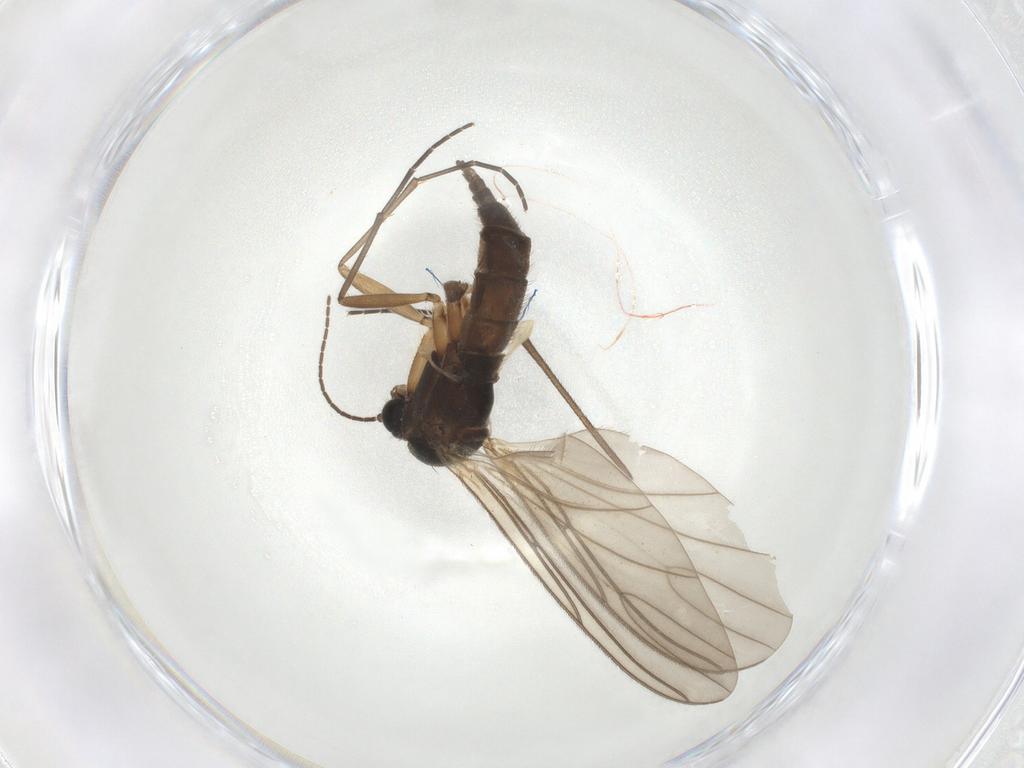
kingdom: Animalia
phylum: Arthropoda
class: Insecta
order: Diptera
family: Sciaridae
